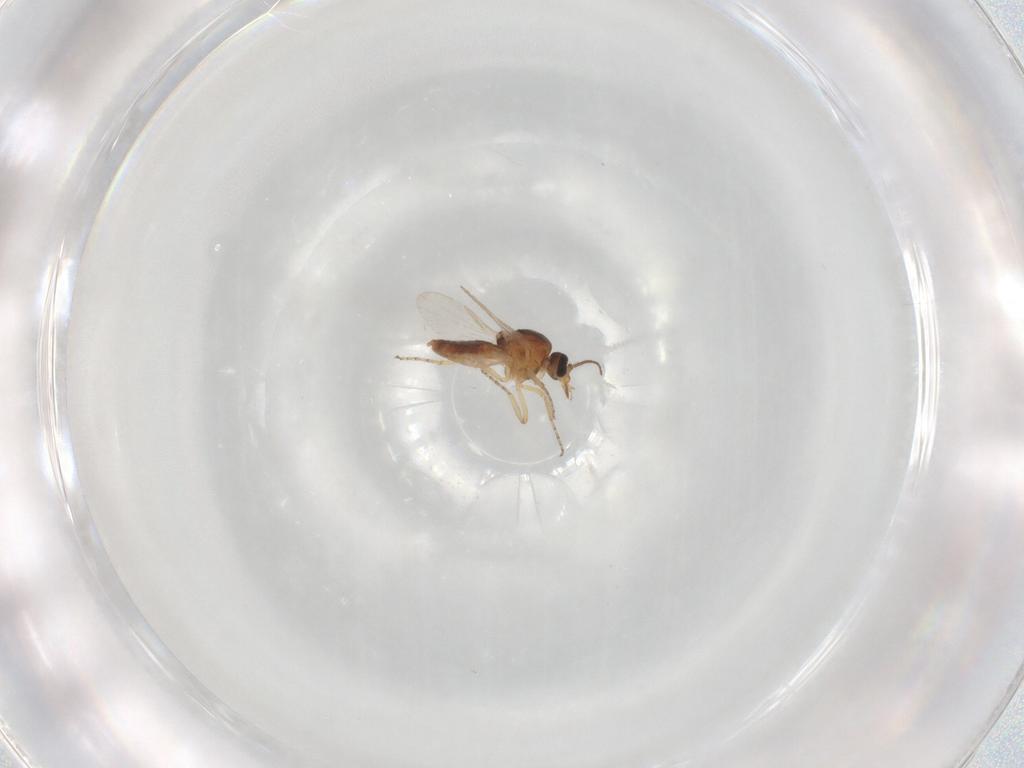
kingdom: Animalia
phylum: Arthropoda
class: Insecta
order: Diptera
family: Ceratopogonidae
